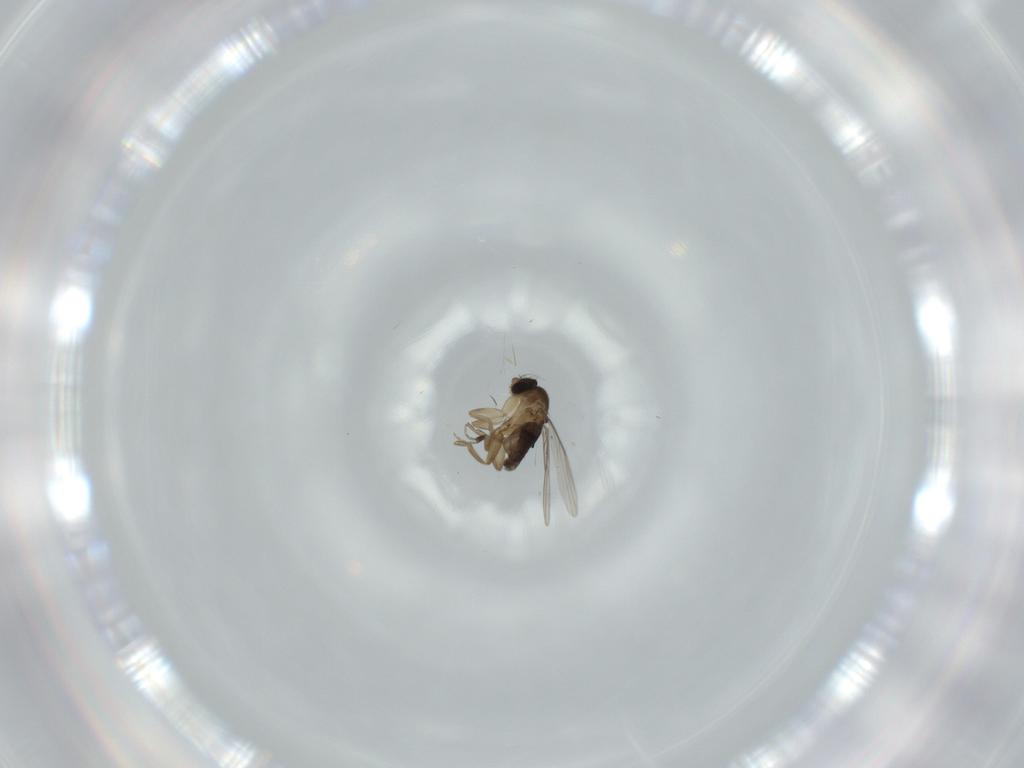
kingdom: Animalia
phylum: Arthropoda
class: Insecta
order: Diptera
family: Phoridae
